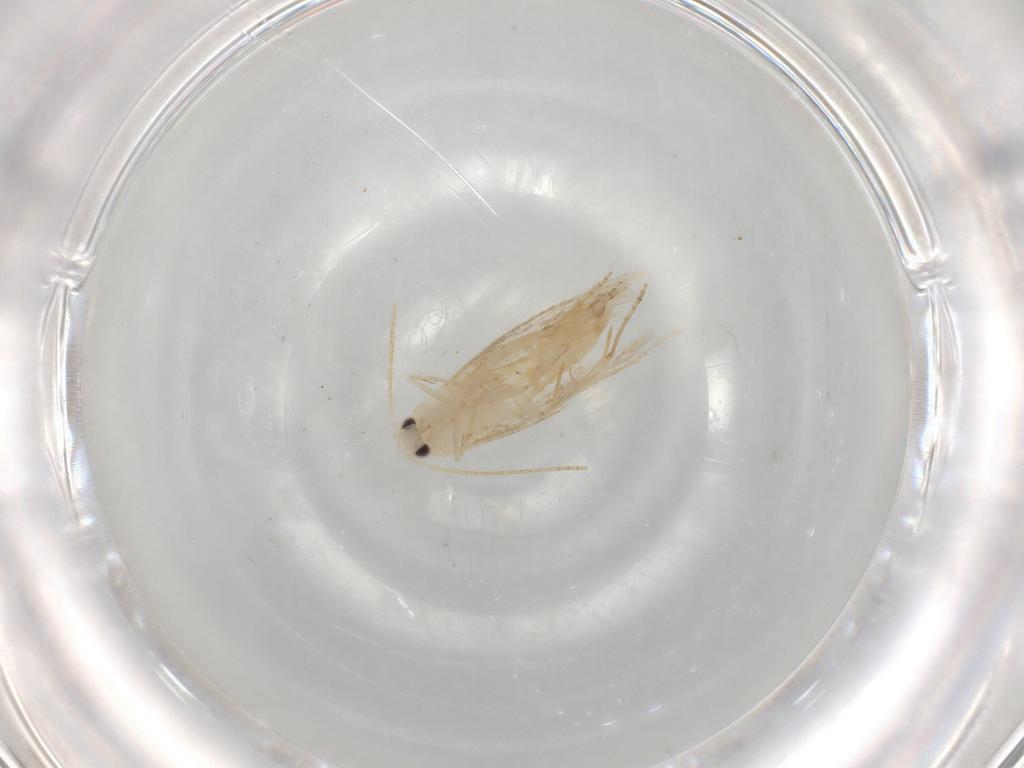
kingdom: Animalia
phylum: Arthropoda
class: Insecta
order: Lepidoptera
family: Bucculatricidae
